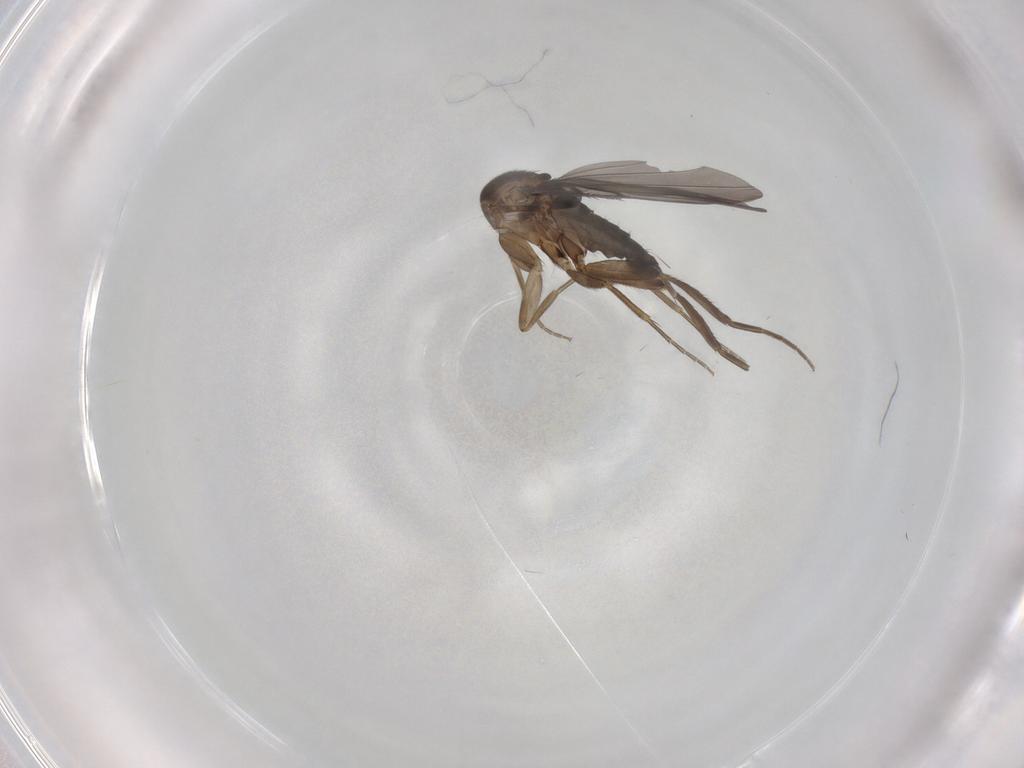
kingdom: Animalia
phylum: Arthropoda
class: Insecta
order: Diptera
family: Phoridae
